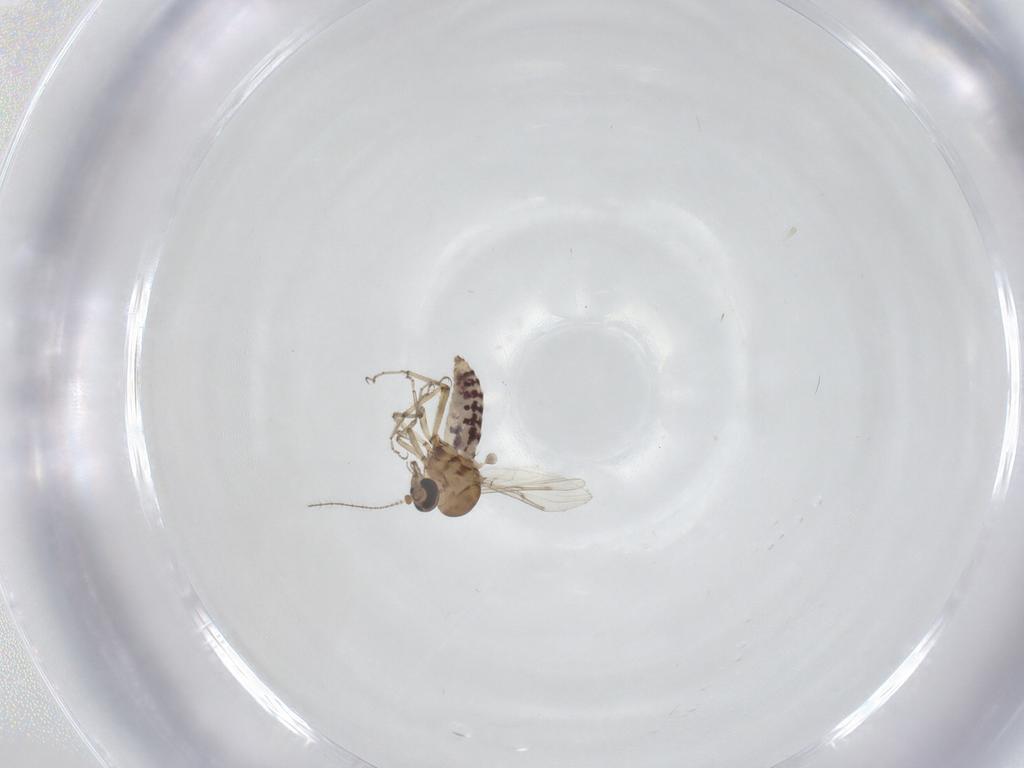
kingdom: Animalia
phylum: Arthropoda
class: Insecta
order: Diptera
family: Ceratopogonidae
